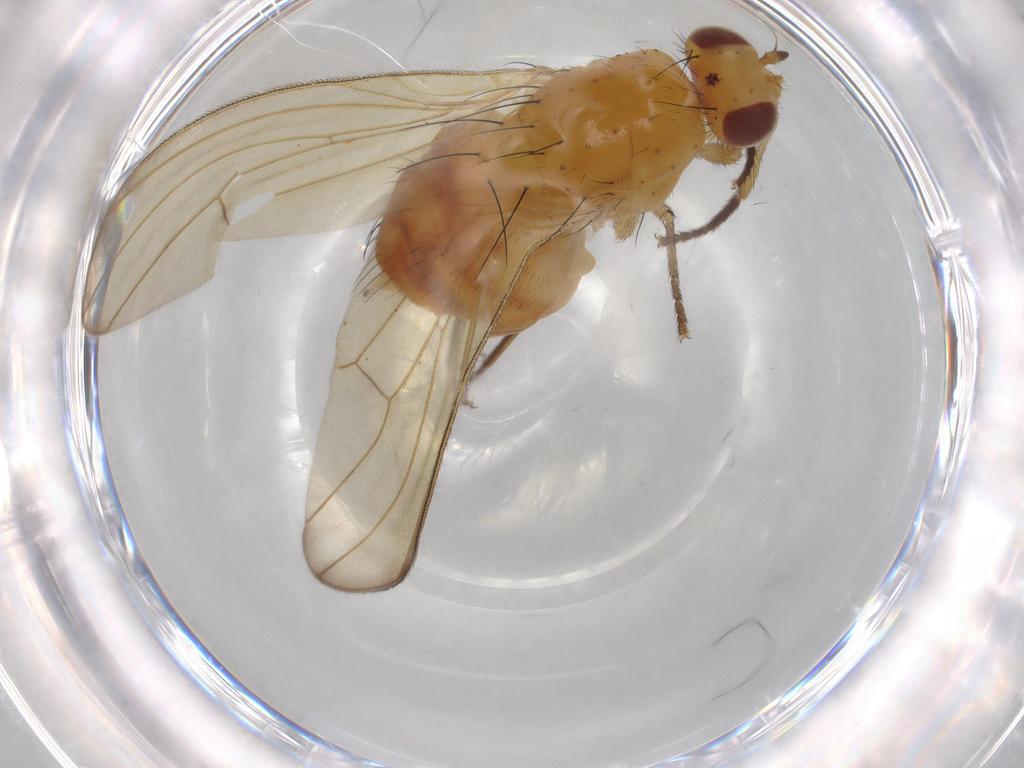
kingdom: Animalia
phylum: Arthropoda
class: Insecta
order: Diptera
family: Lauxaniidae
